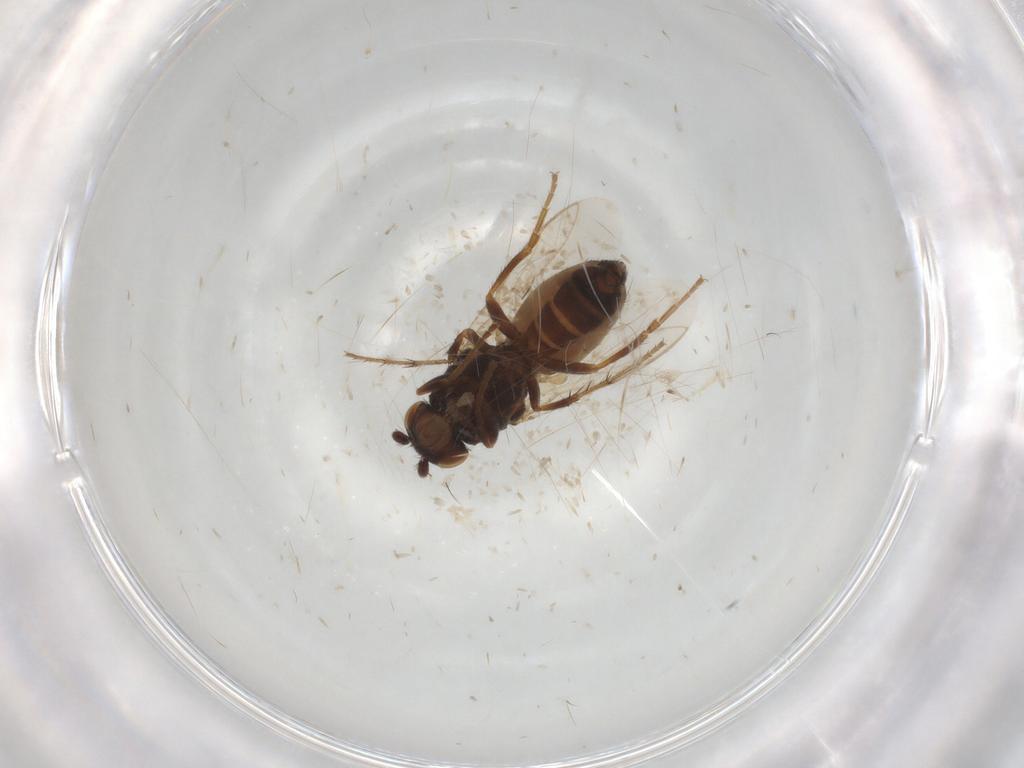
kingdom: Animalia
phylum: Arthropoda
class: Insecta
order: Diptera
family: Sphaeroceridae
